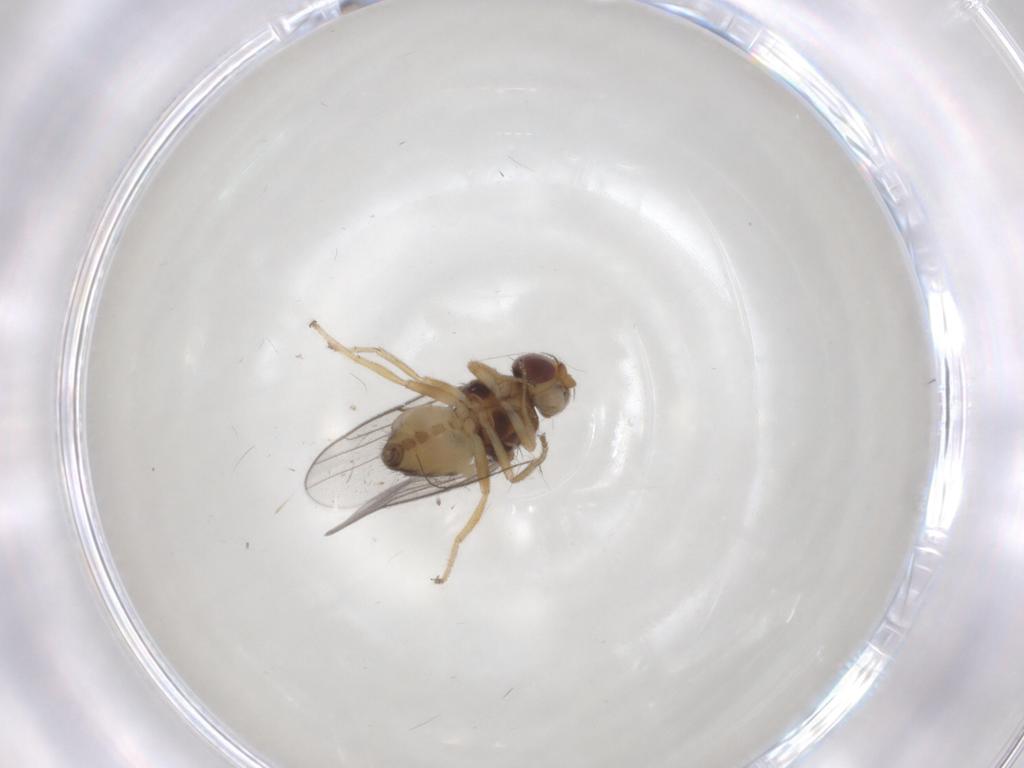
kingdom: Animalia
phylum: Arthropoda
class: Insecta
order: Diptera
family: Chloropidae
